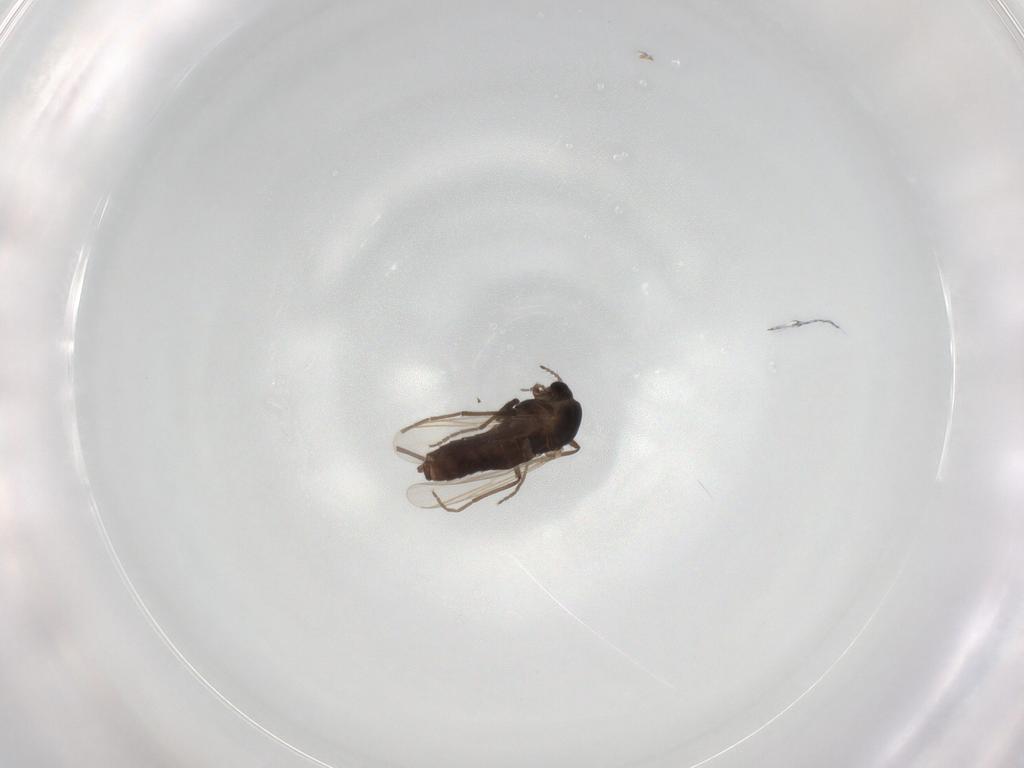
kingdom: Animalia
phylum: Arthropoda
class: Insecta
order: Diptera
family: Chironomidae
